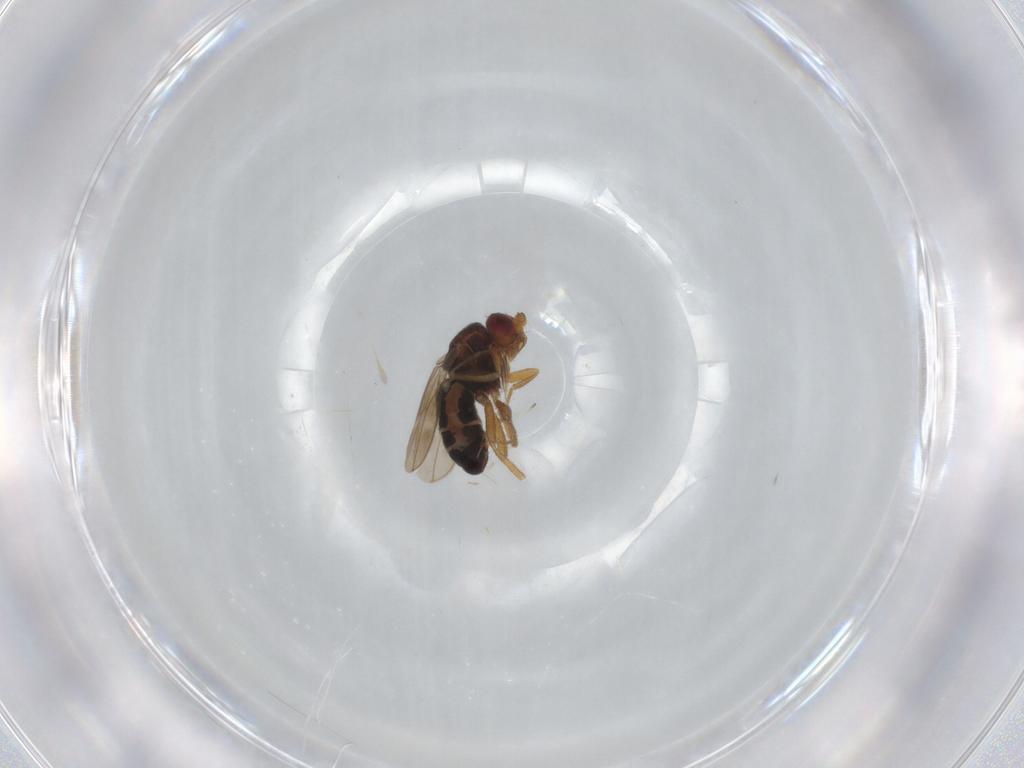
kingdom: Animalia
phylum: Arthropoda
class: Insecta
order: Diptera
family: Sphaeroceridae
